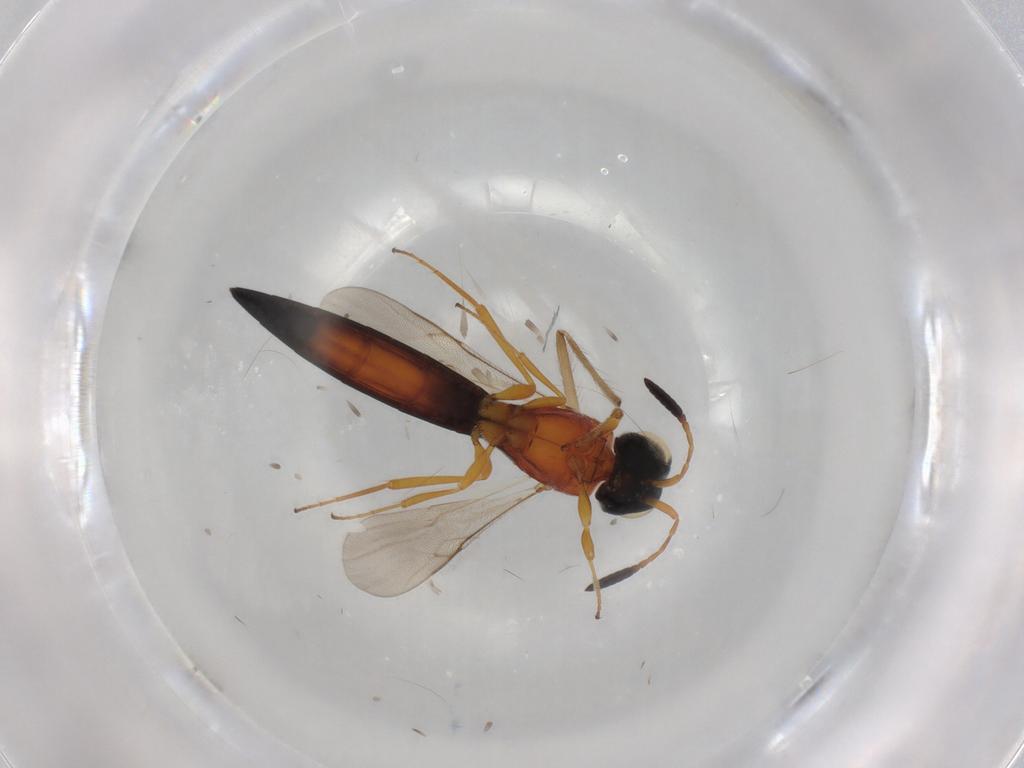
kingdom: Animalia
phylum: Arthropoda
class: Insecta
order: Hymenoptera
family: Scelionidae
